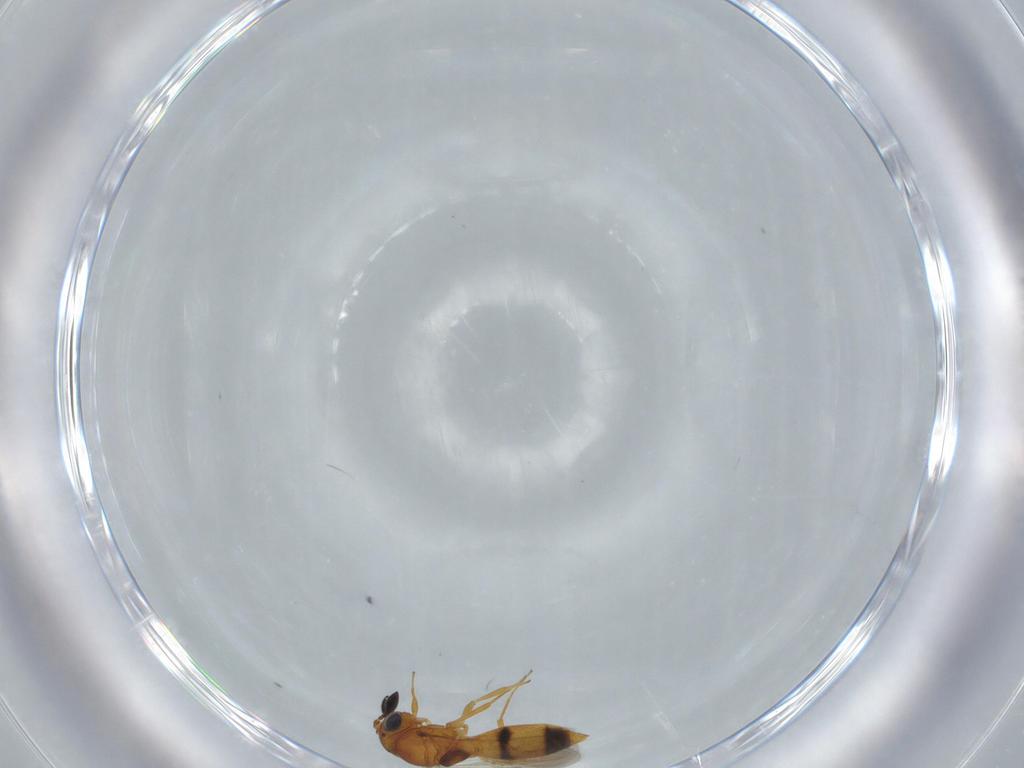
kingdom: Animalia
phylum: Arthropoda
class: Insecta
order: Hymenoptera
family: Scelionidae
